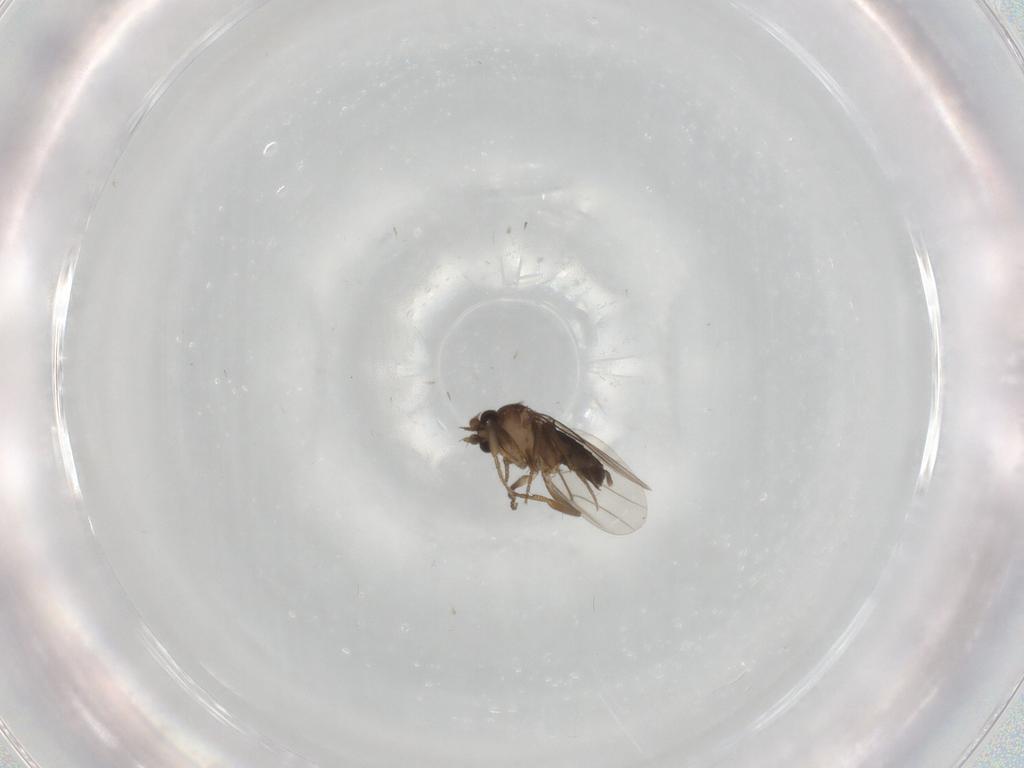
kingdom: Animalia
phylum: Arthropoda
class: Insecta
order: Diptera
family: Phoridae
